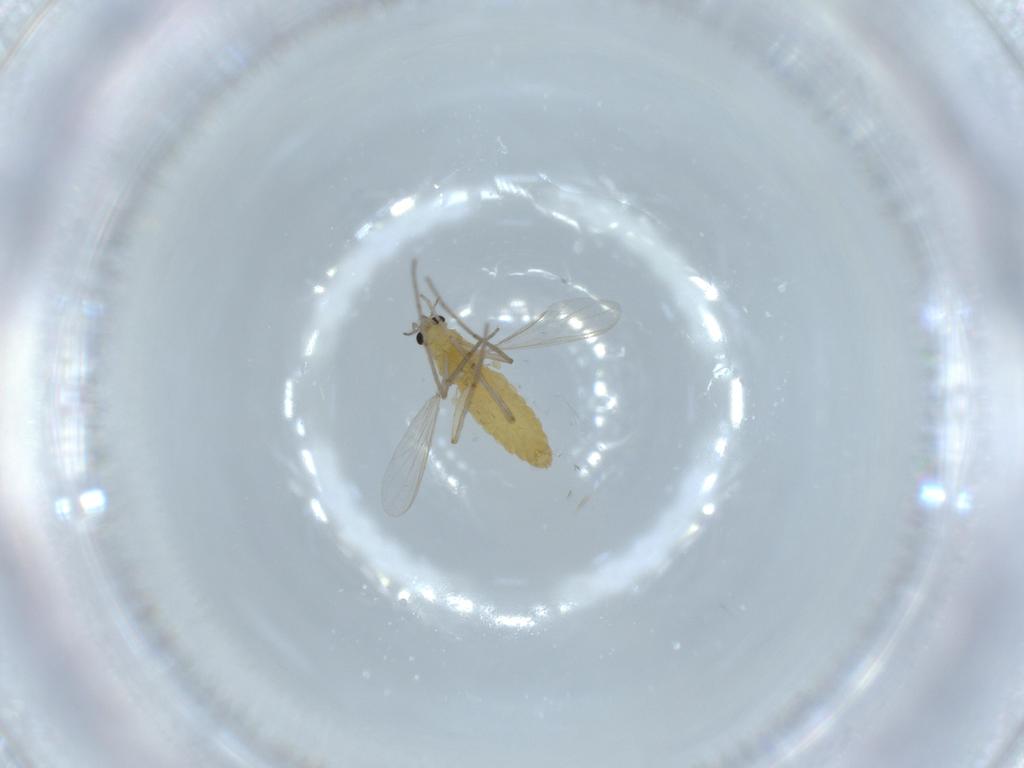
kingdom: Animalia
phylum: Arthropoda
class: Insecta
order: Diptera
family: Chironomidae
